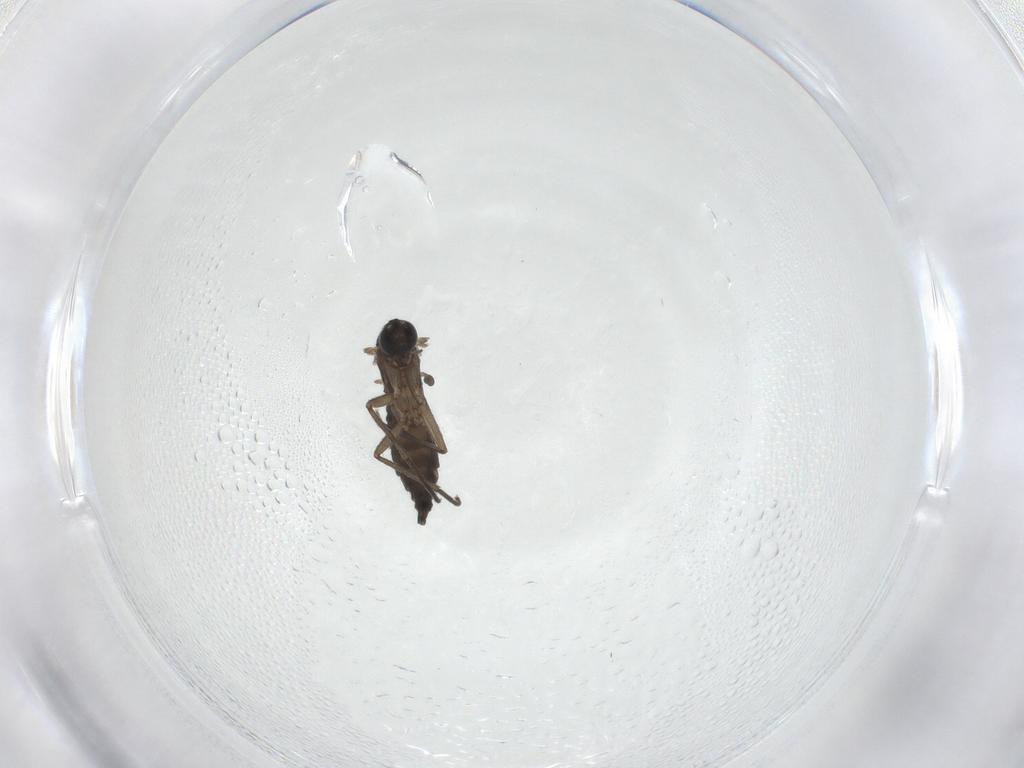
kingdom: Animalia
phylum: Arthropoda
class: Insecta
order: Diptera
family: Sciaridae
